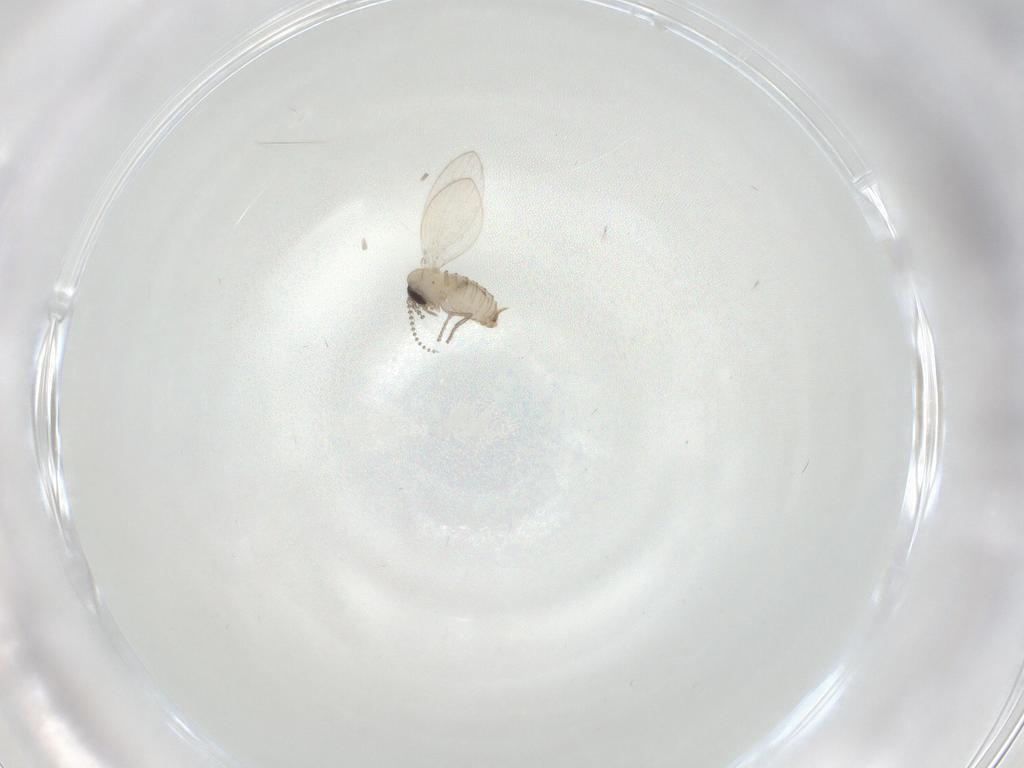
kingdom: Animalia
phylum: Arthropoda
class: Insecta
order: Diptera
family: Psychodidae
